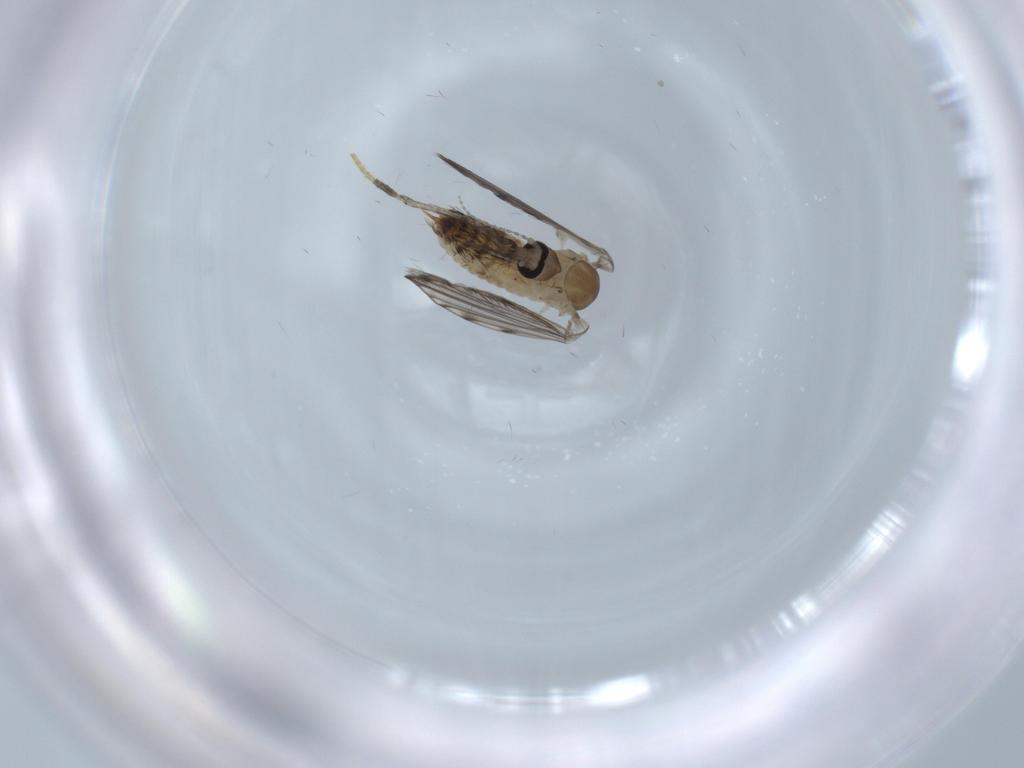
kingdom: Animalia
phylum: Arthropoda
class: Insecta
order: Diptera
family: Psychodidae
